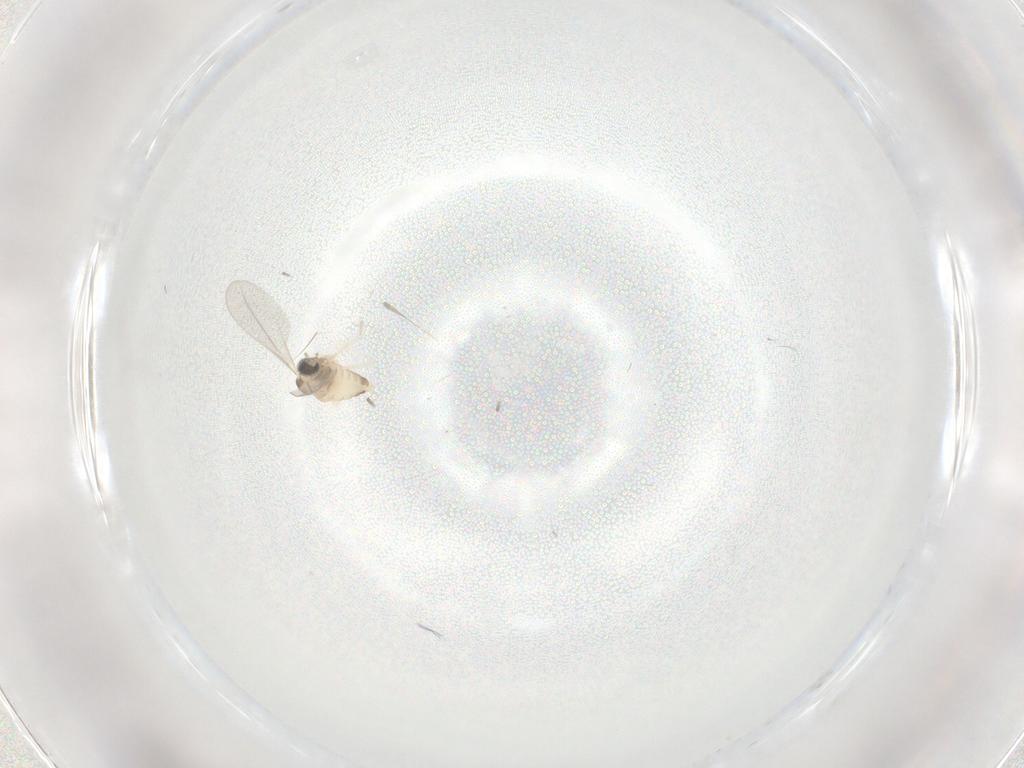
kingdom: Animalia
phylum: Arthropoda
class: Insecta
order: Diptera
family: Cecidomyiidae
